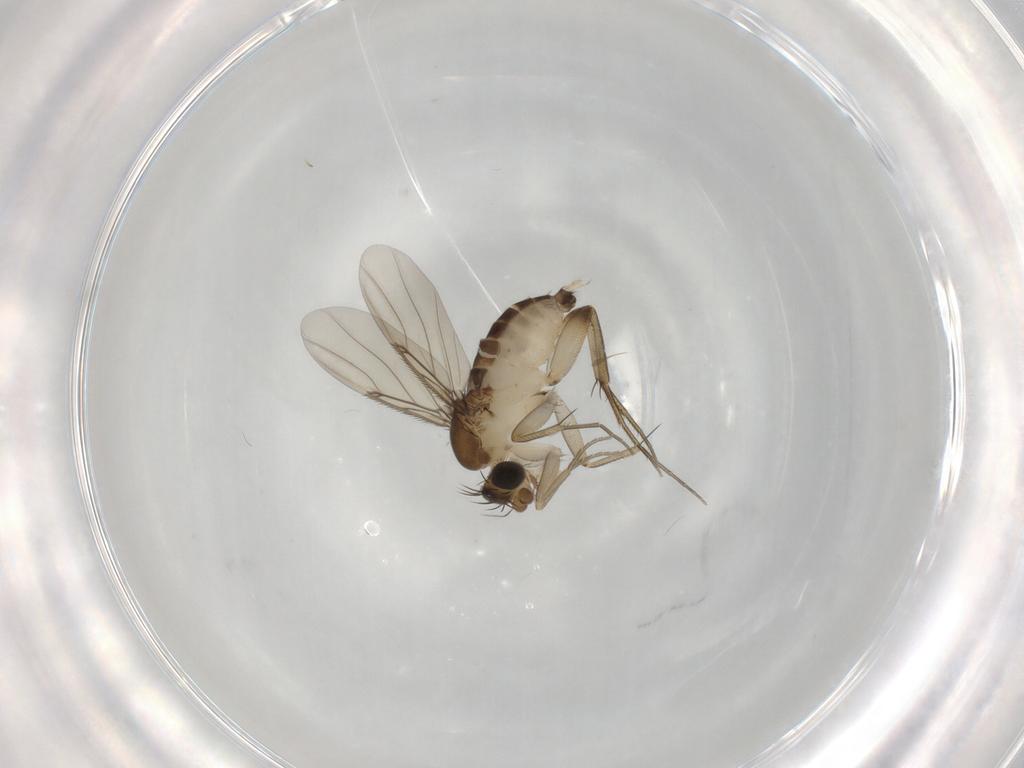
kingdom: Animalia
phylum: Arthropoda
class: Insecta
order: Diptera
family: Phoridae
